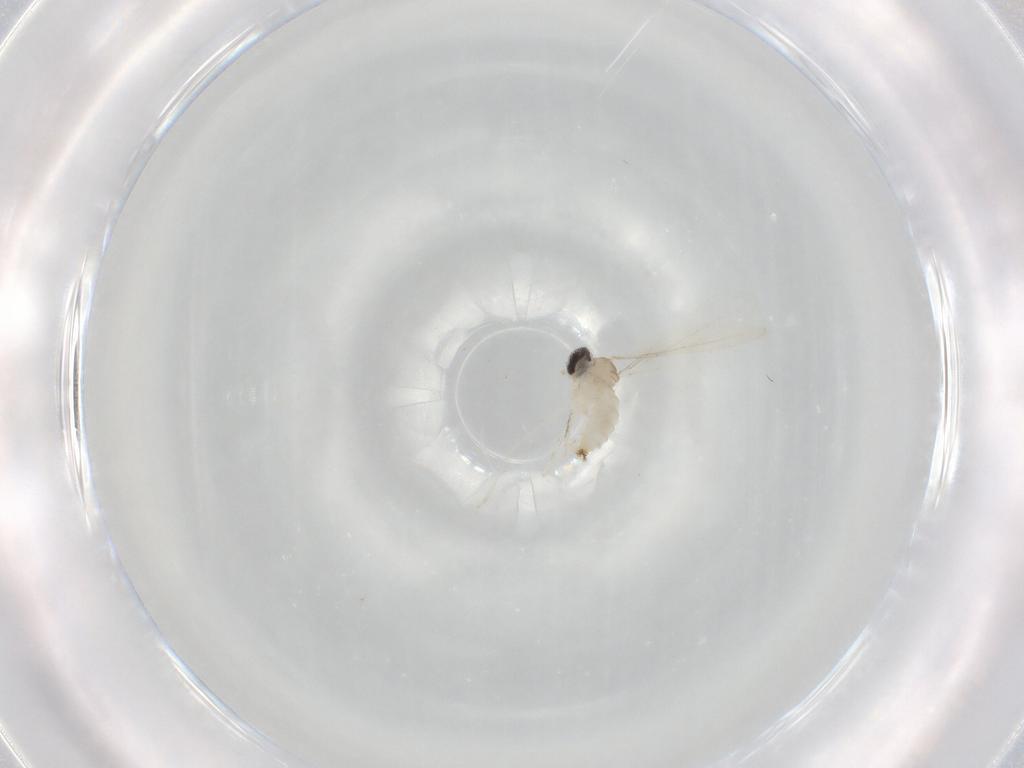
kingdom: Animalia
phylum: Arthropoda
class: Insecta
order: Diptera
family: Cecidomyiidae
